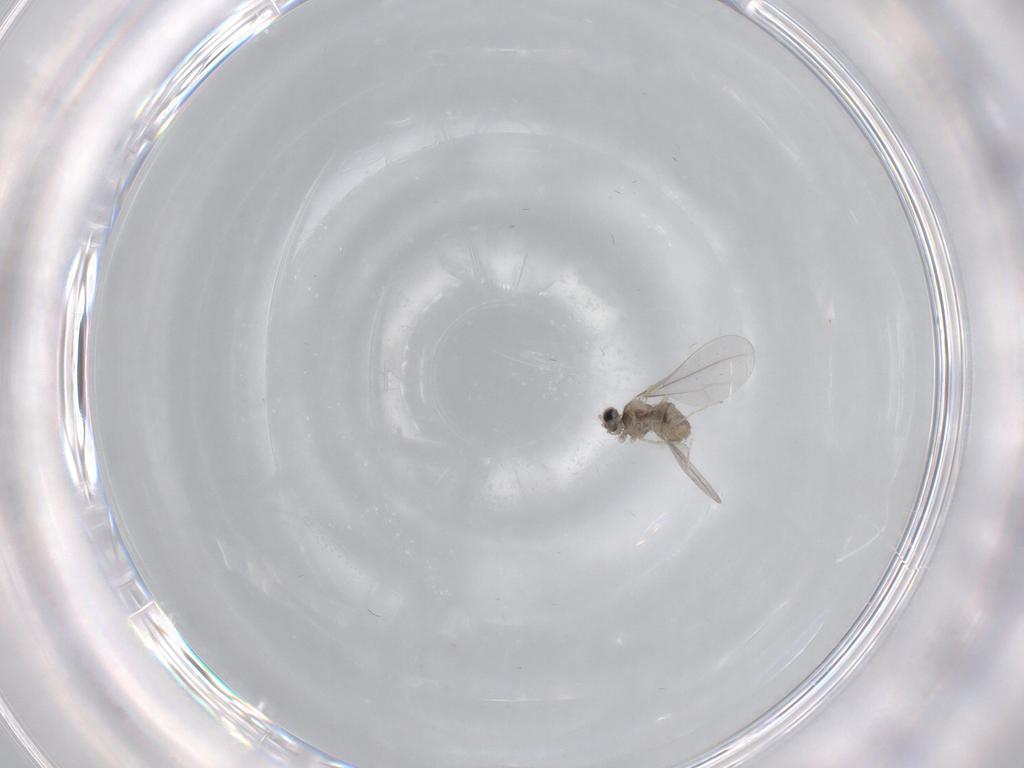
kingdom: Animalia
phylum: Arthropoda
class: Insecta
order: Diptera
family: Cecidomyiidae
